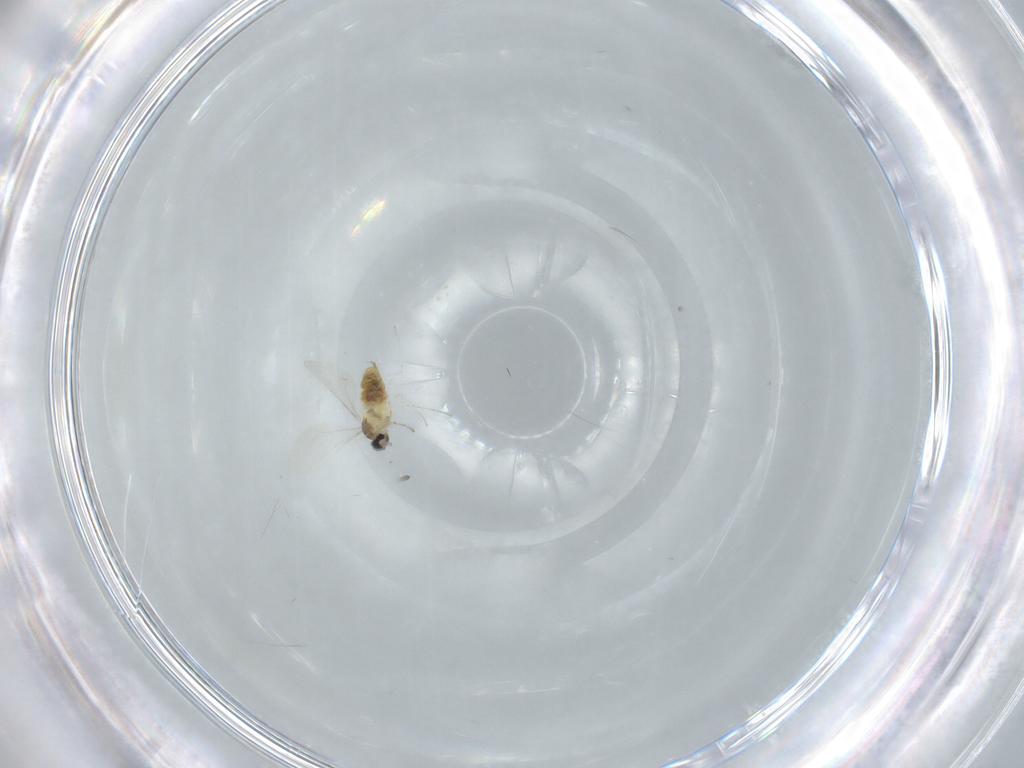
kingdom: Animalia
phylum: Arthropoda
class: Insecta
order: Diptera
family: Cecidomyiidae
